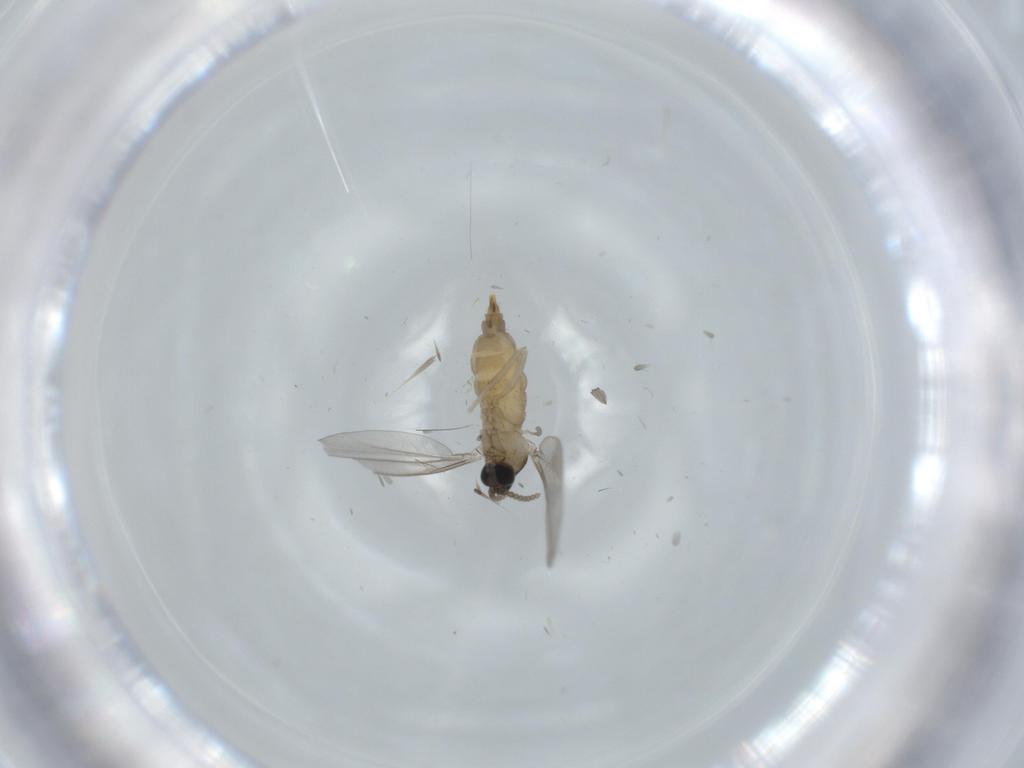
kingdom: Animalia
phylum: Arthropoda
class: Insecta
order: Diptera
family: Cecidomyiidae
